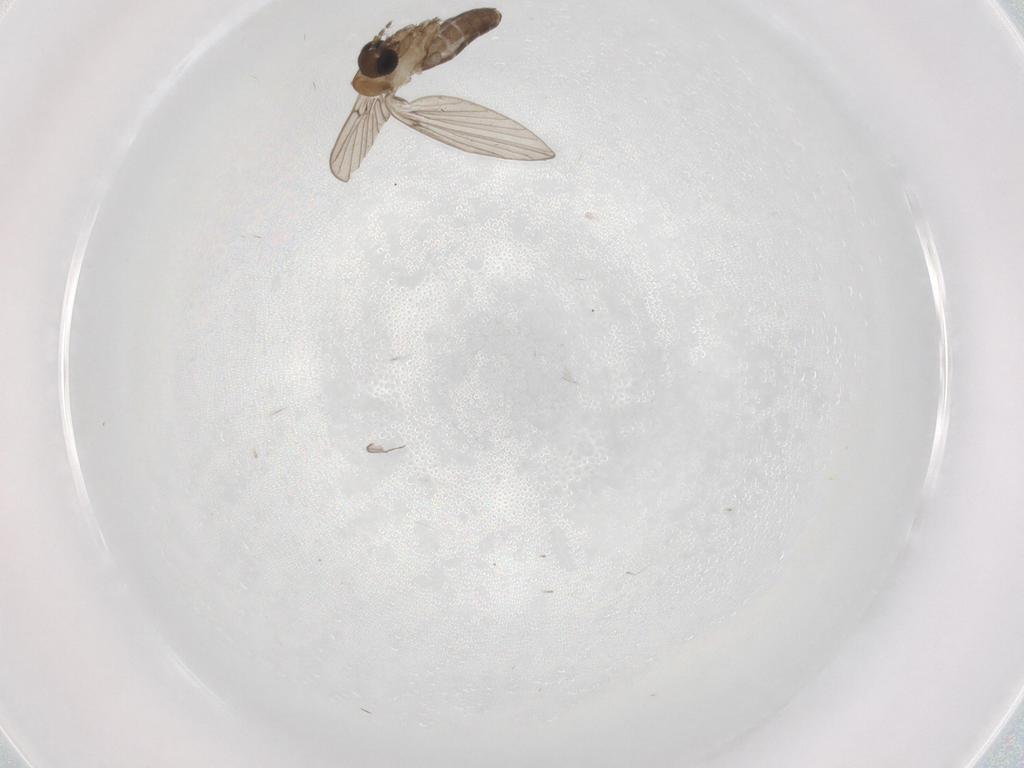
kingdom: Animalia
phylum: Arthropoda
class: Insecta
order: Diptera
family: Psychodidae
